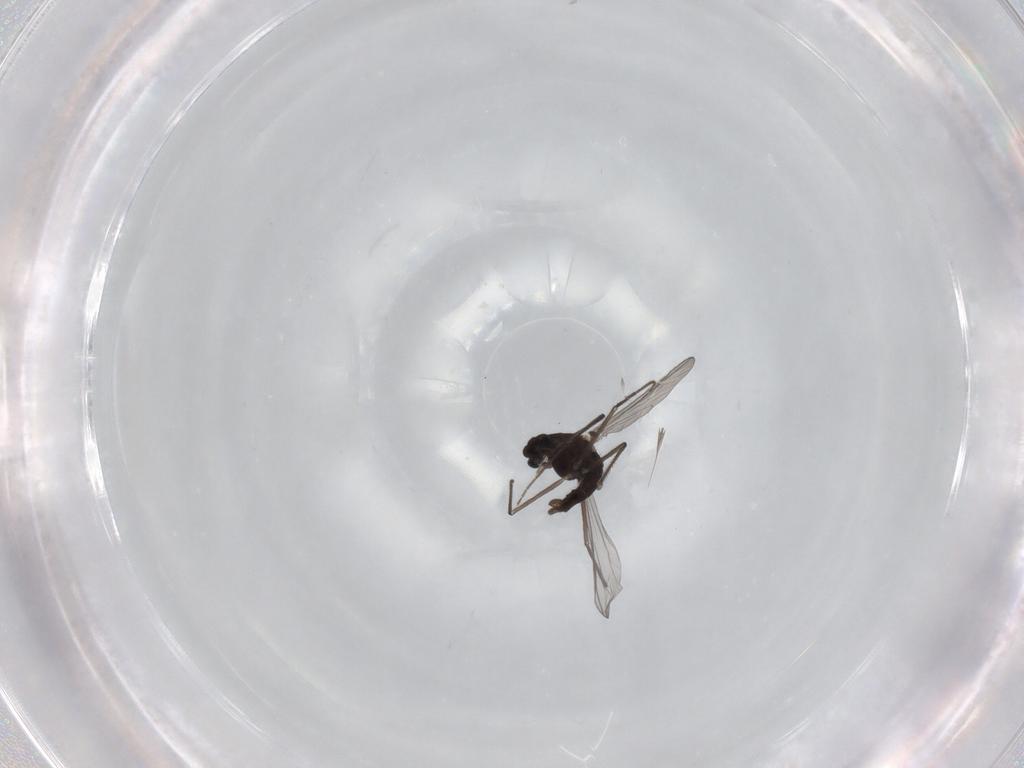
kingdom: Animalia
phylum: Arthropoda
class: Insecta
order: Diptera
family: Chironomidae
